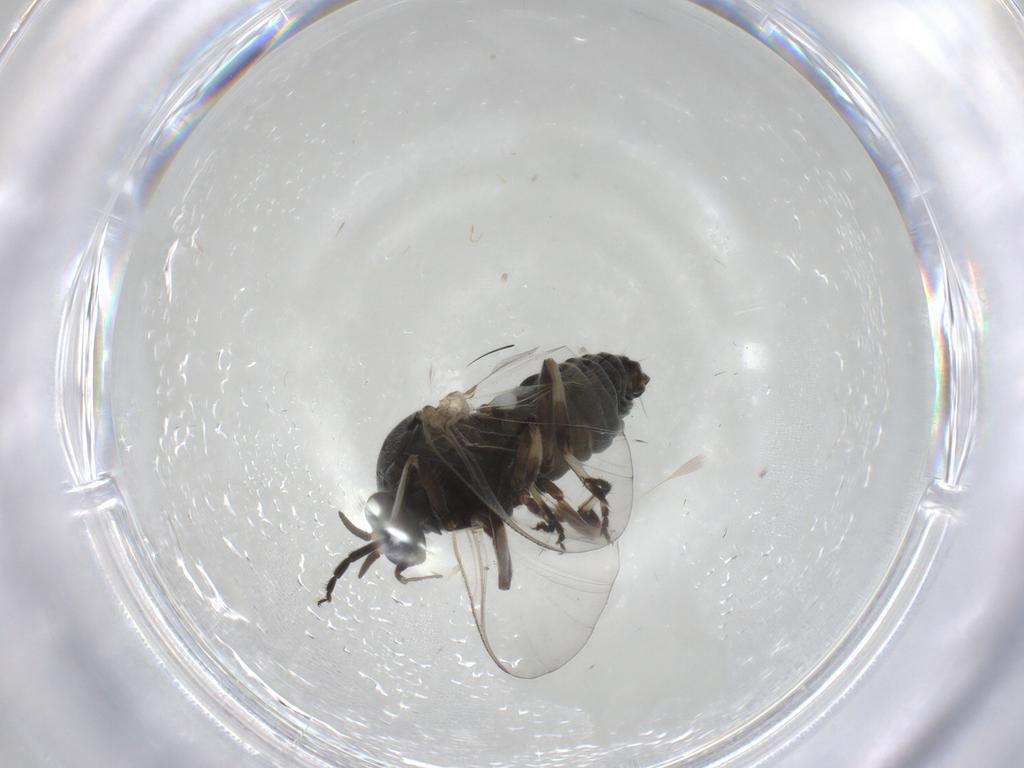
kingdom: Animalia
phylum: Arthropoda
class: Insecta
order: Diptera
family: Simuliidae
